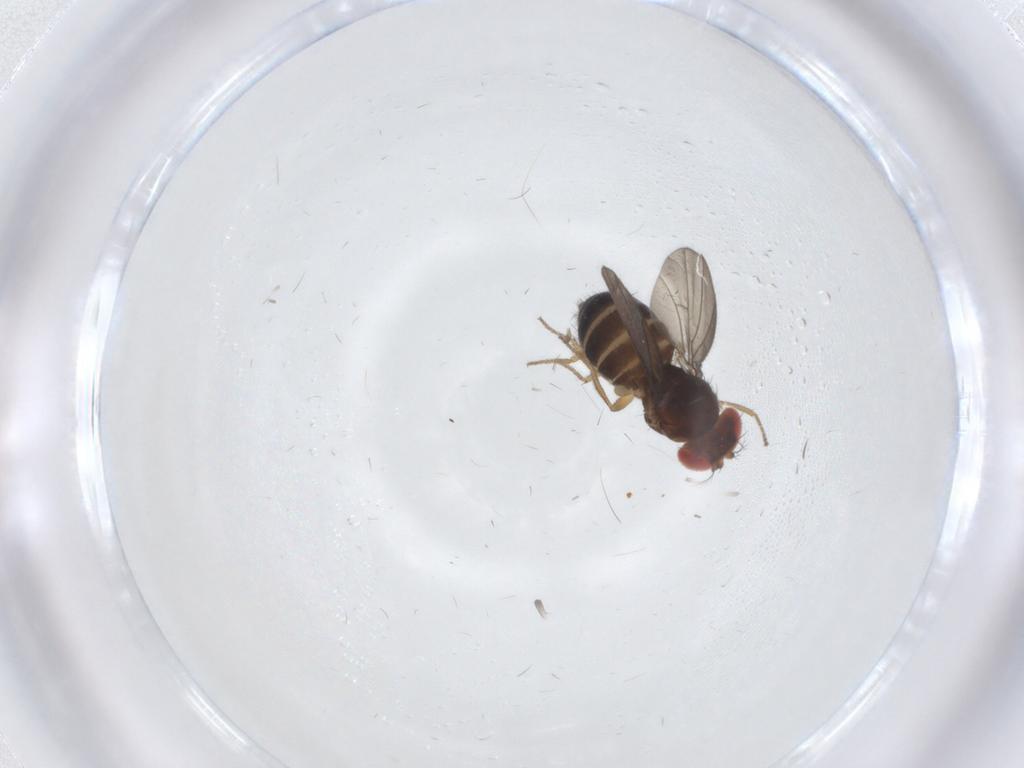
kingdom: Animalia
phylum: Arthropoda
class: Insecta
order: Diptera
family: Drosophilidae
